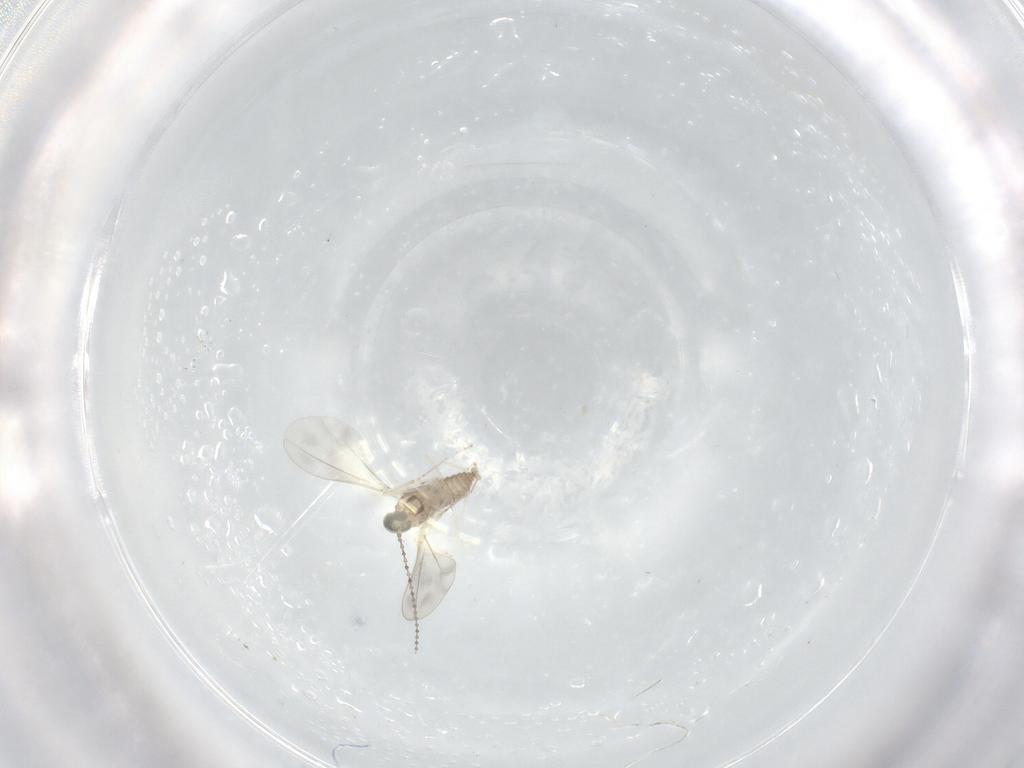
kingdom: Animalia
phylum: Arthropoda
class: Insecta
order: Diptera
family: Cecidomyiidae
